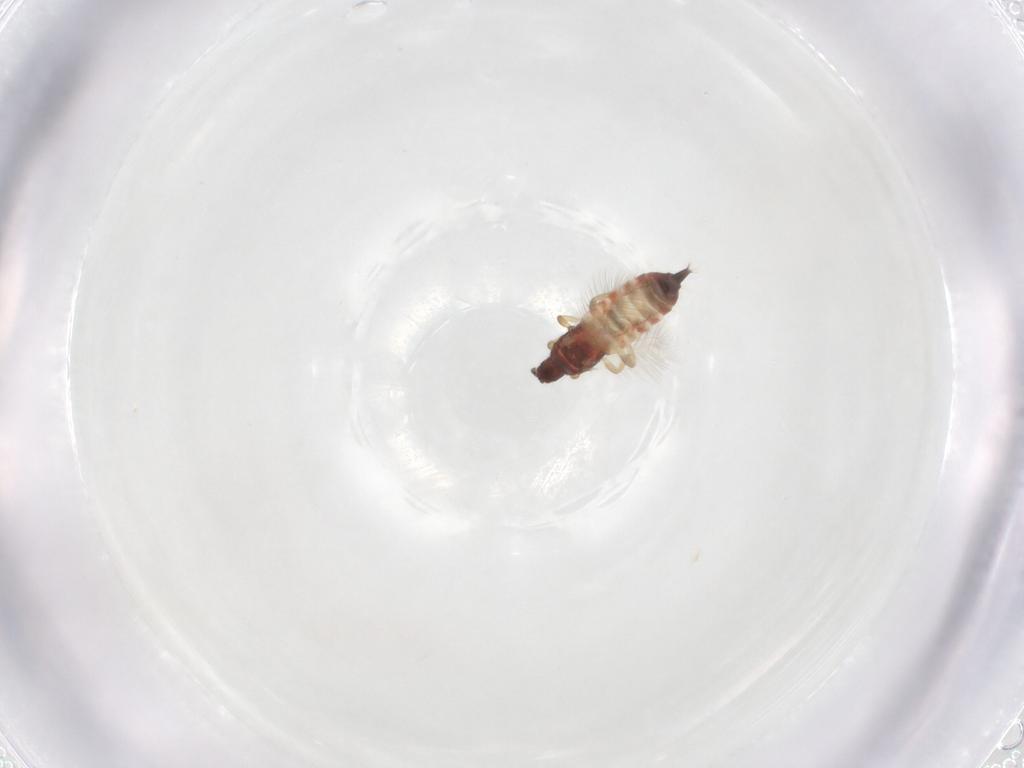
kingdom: Animalia
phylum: Arthropoda
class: Insecta
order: Thysanoptera
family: Phlaeothripidae
